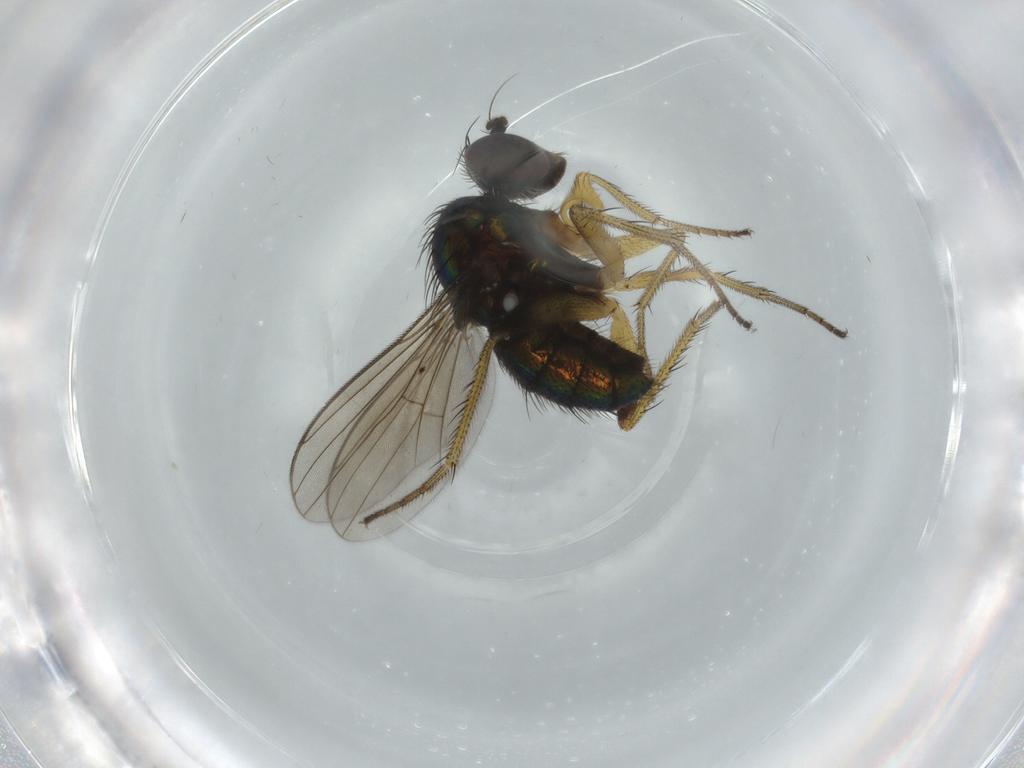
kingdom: Animalia
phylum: Arthropoda
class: Insecta
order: Diptera
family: Dolichopodidae
